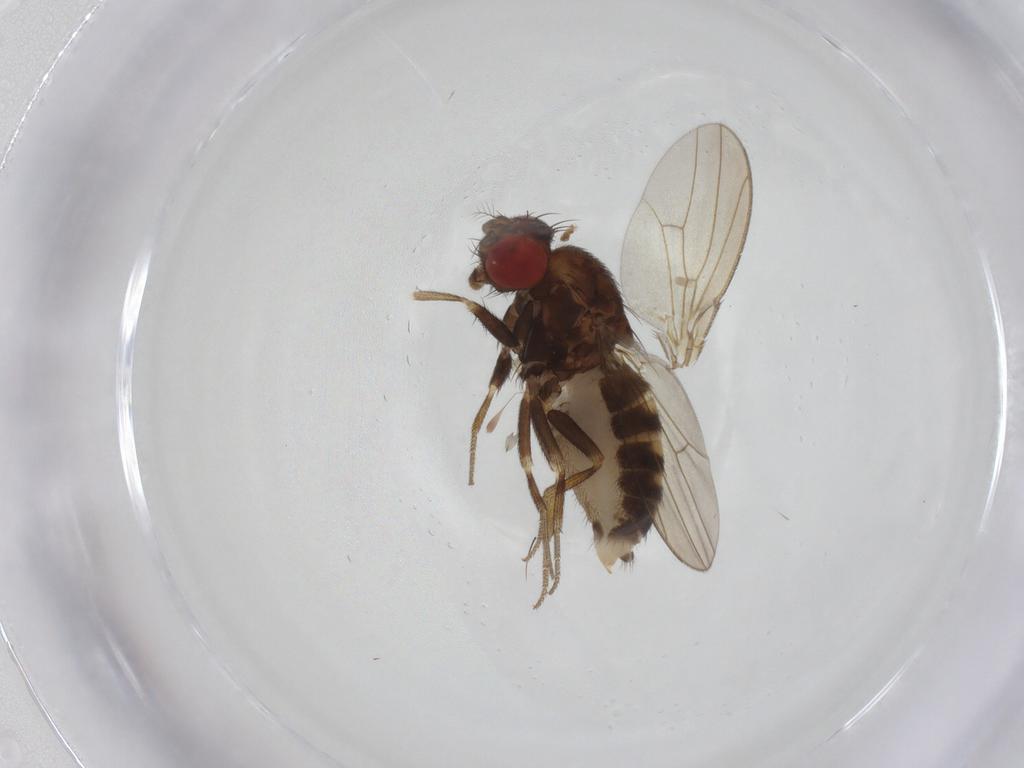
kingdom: Animalia
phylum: Arthropoda
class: Insecta
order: Diptera
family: Drosophilidae
